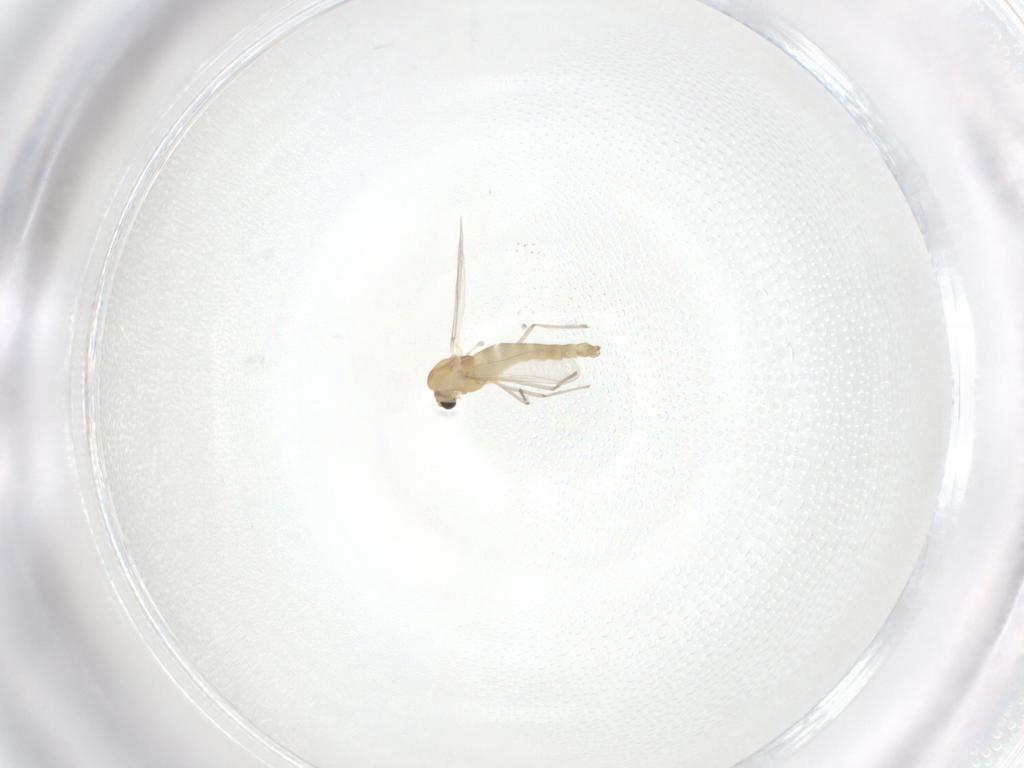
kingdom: Animalia
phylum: Arthropoda
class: Insecta
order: Diptera
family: Chironomidae
